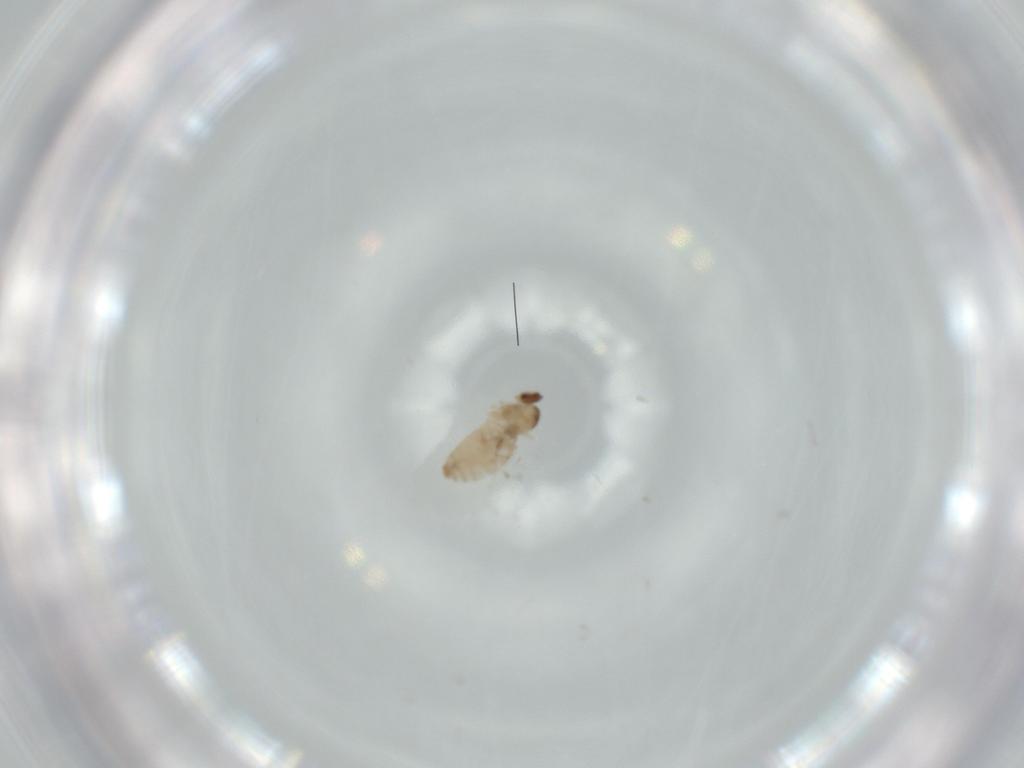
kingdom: Animalia
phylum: Arthropoda
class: Insecta
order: Diptera
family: Cecidomyiidae
